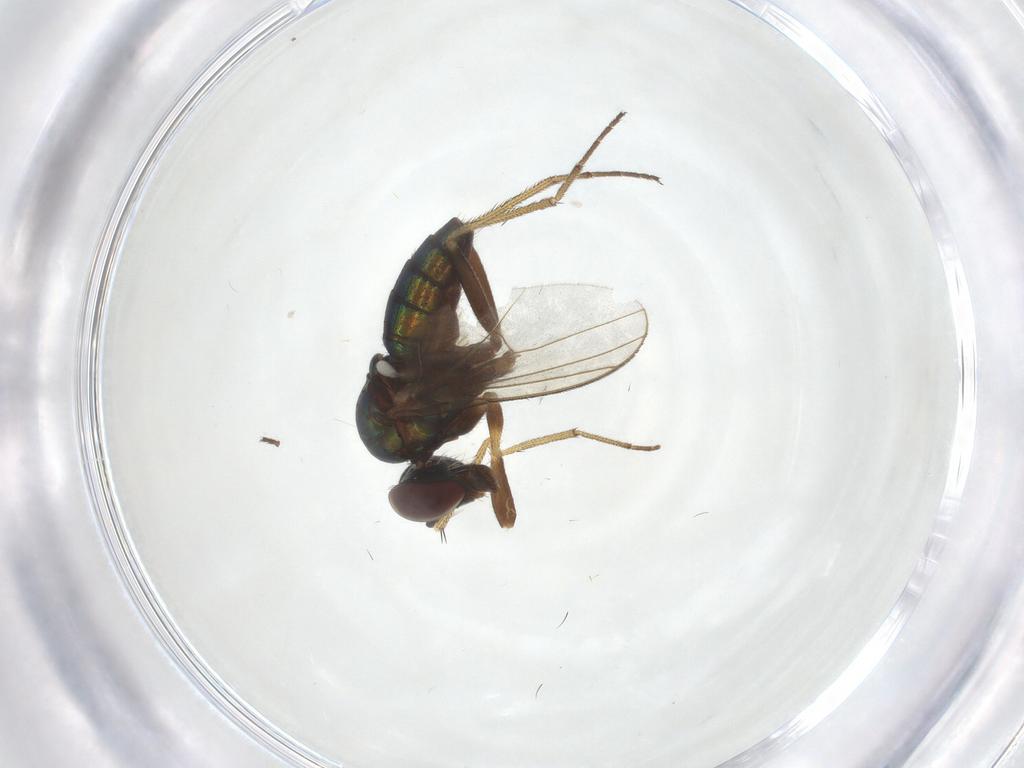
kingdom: Animalia
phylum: Arthropoda
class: Insecta
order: Diptera
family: Dolichopodidae
